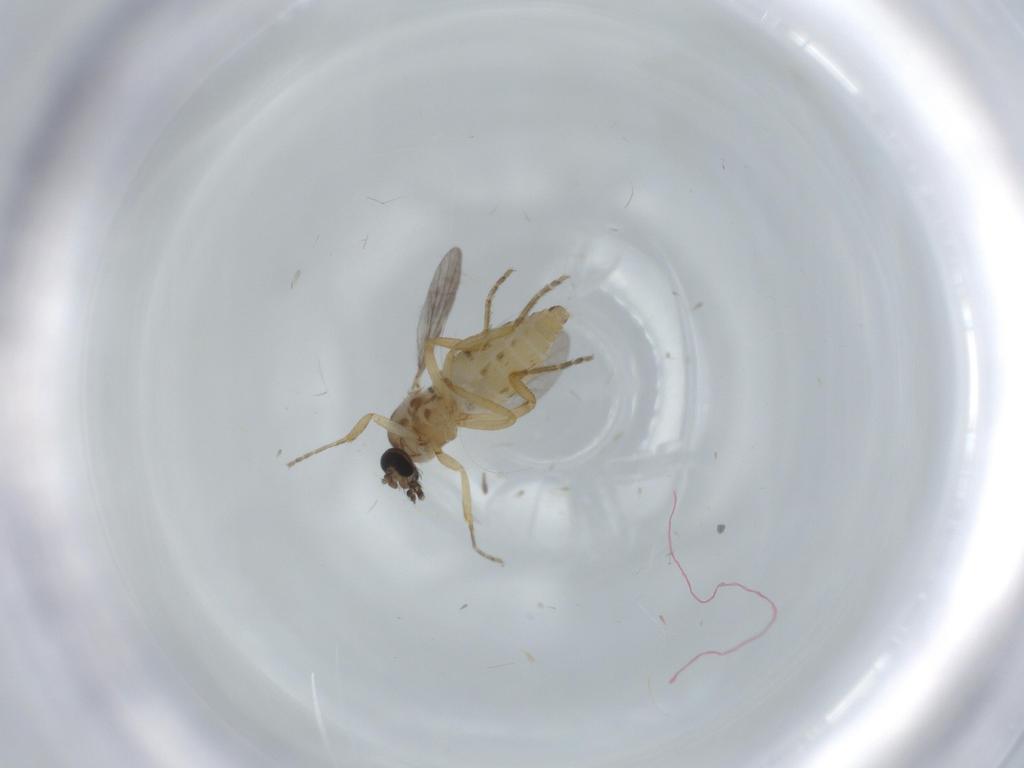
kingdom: Animalia
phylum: Arthropoda
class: Insecta
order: Diptera
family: Ceratopogonidae
